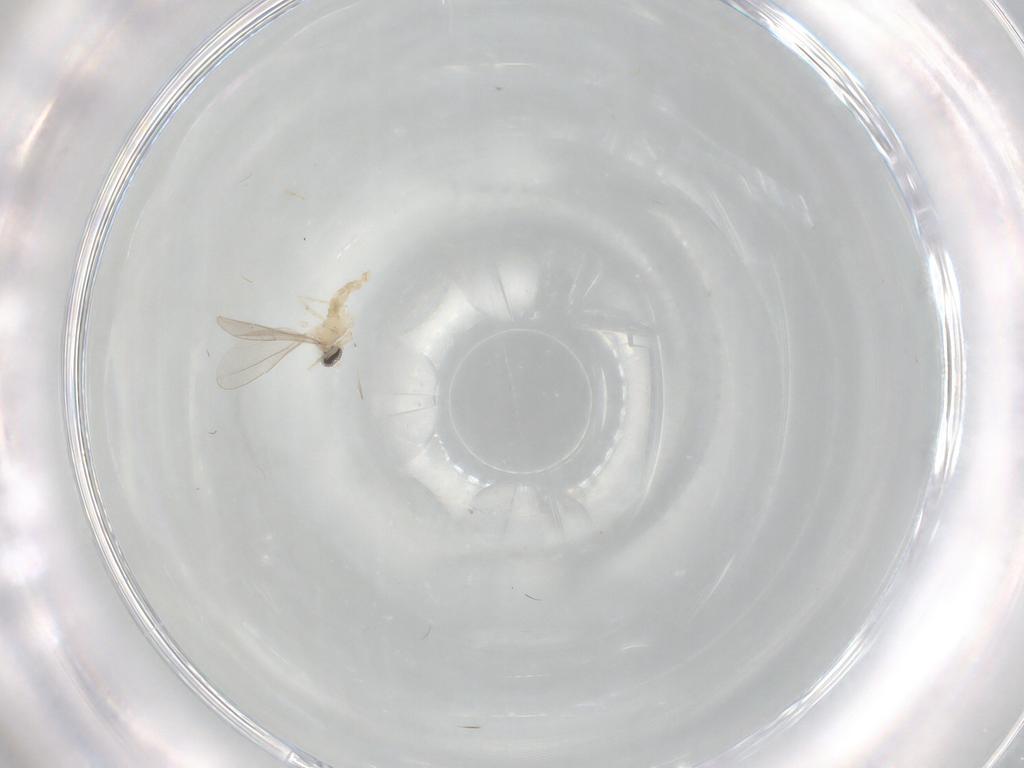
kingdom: Animalia
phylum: Arthropoda
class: Insecta
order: Diptera
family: Cecidomyiidae
